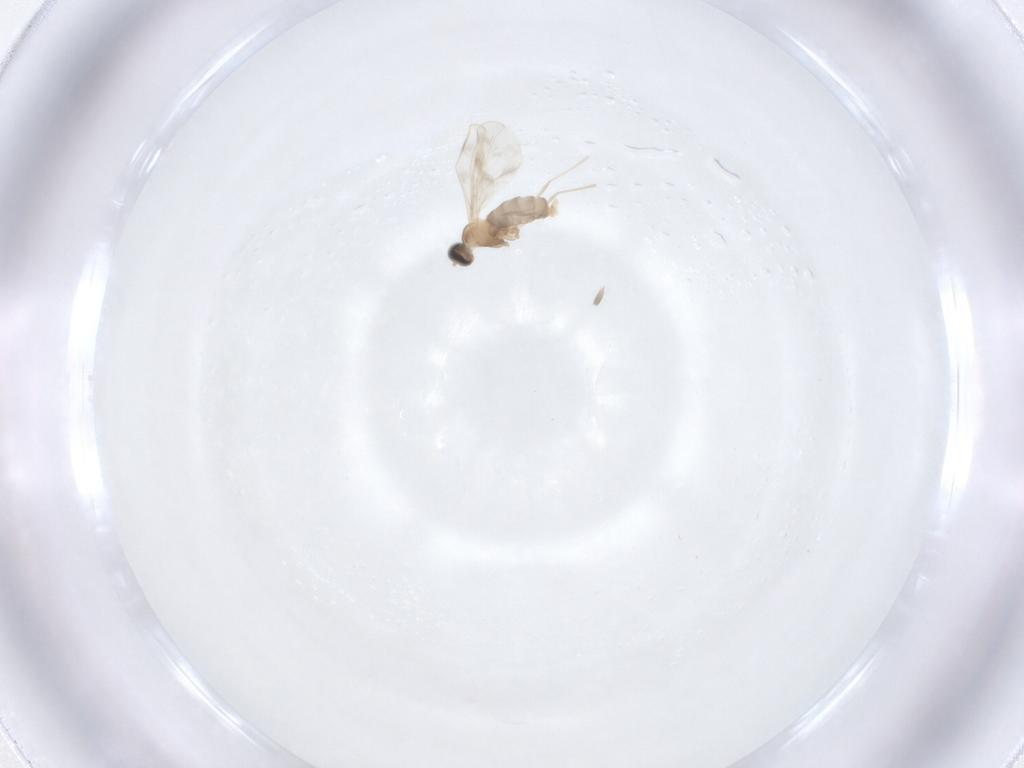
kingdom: Animalia
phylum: Arthropoda
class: Insecta
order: Diptera
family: Cecidomyiidae
